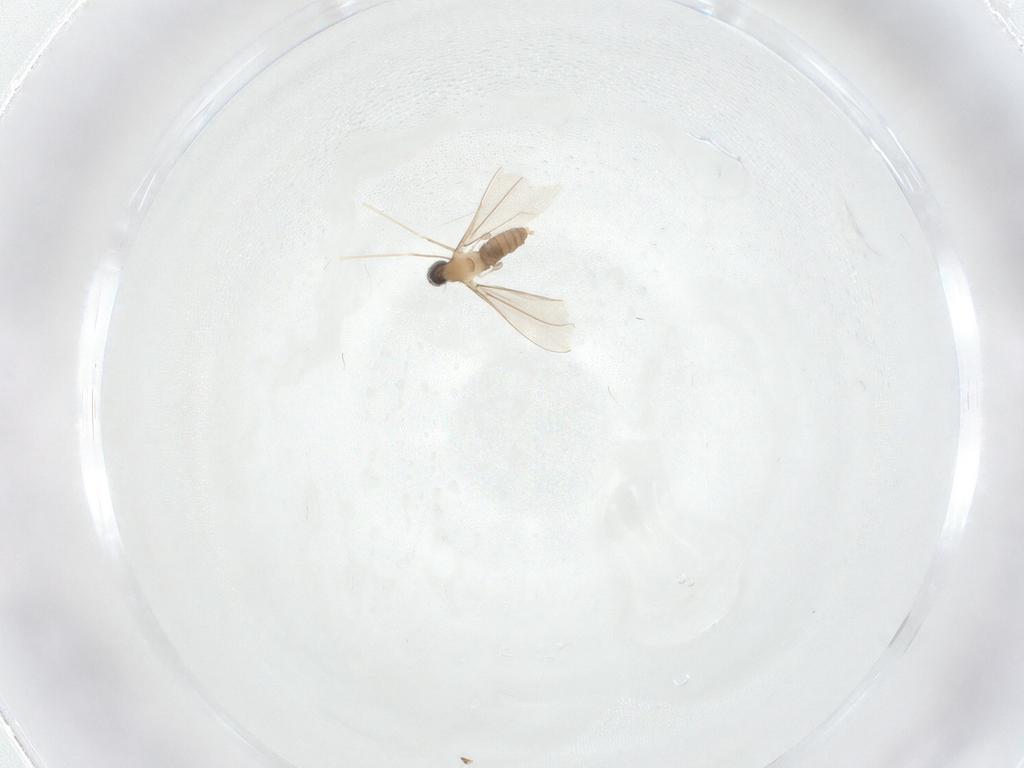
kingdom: Animalia
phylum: Arthropoda
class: Insecta
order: Diptera
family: Cecidomyiidae
